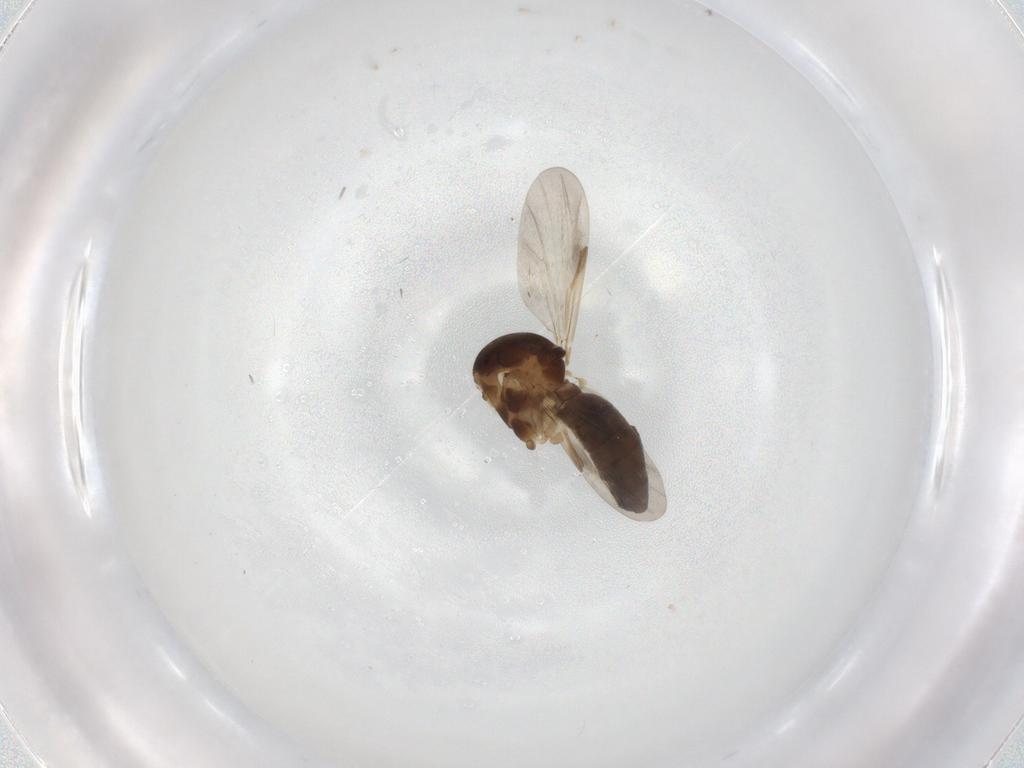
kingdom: Animalia
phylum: Arthropoda
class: Insecta
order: Diptera
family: Ceratopogonidae
